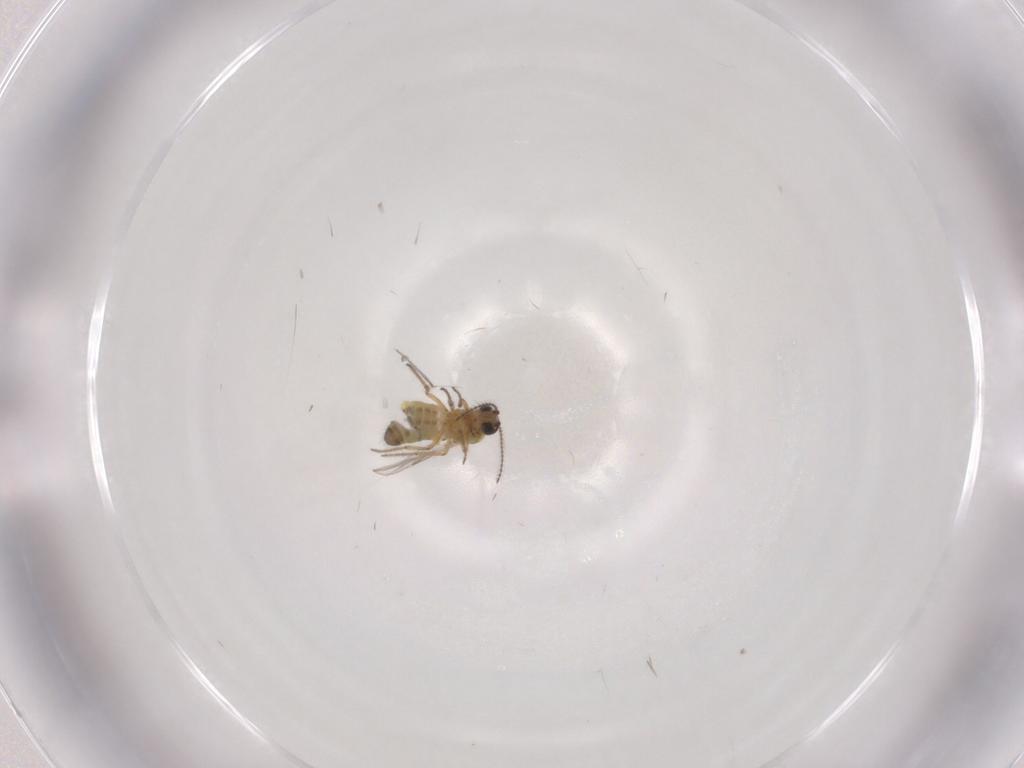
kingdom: Animalia
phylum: Arthropoda
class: Insecta
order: Diptera
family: Ceratopogonidae
